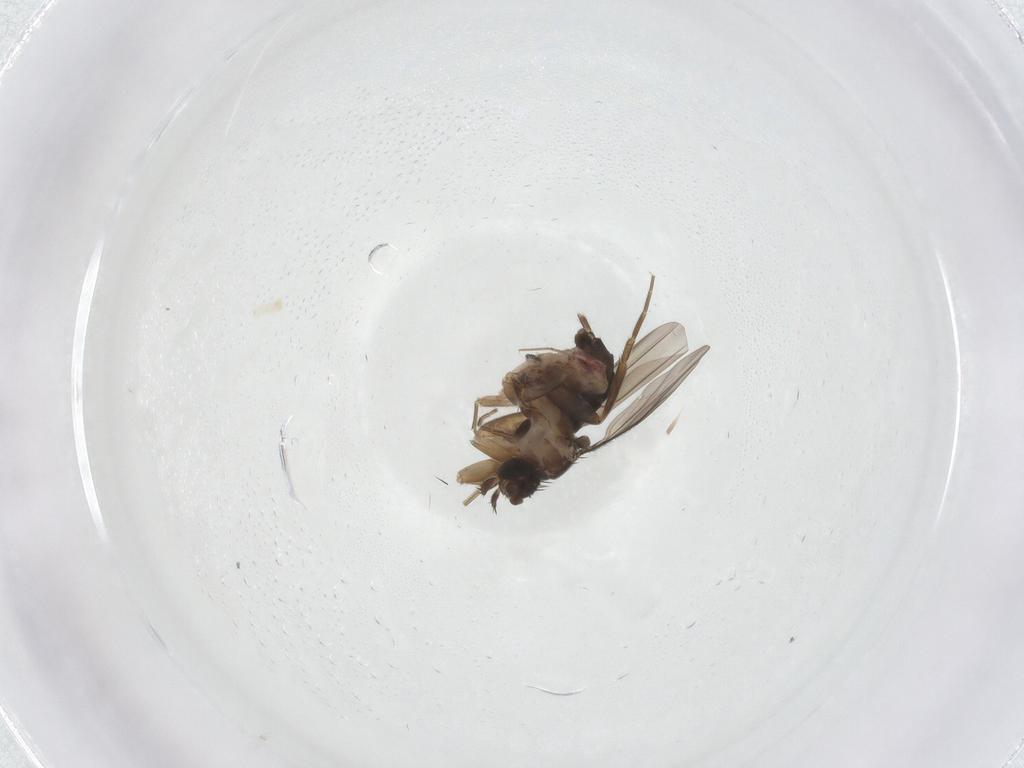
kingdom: Animalia
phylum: Arthropoda
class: Insecta
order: Diptera
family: Phoridae
